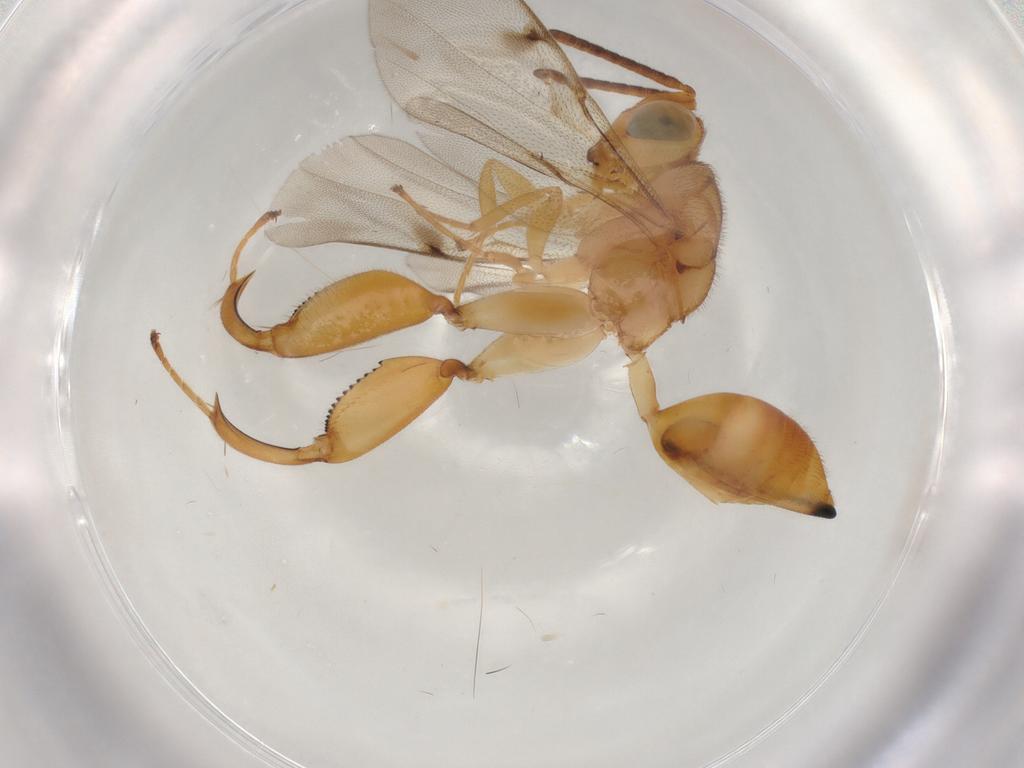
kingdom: Animalia
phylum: Arthropoda
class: Insecta
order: Hymenoptera
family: Chalcididae
